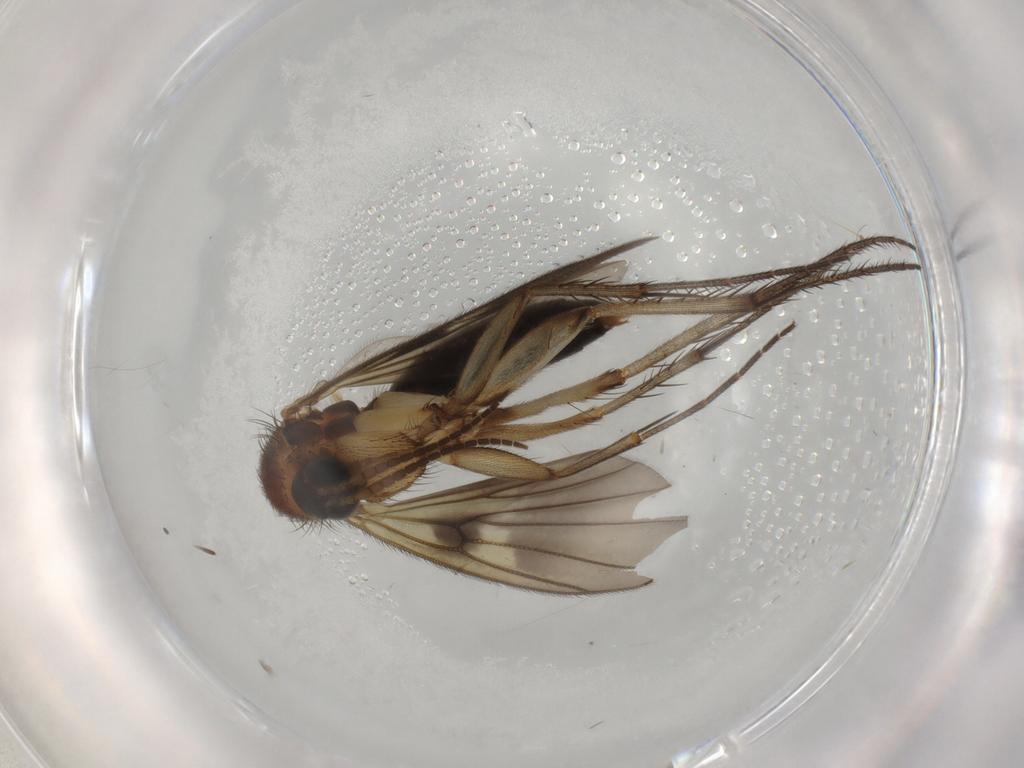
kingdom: Animalia
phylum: Arthropoda
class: Insecta
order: Diptera
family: Mycetophilidae
